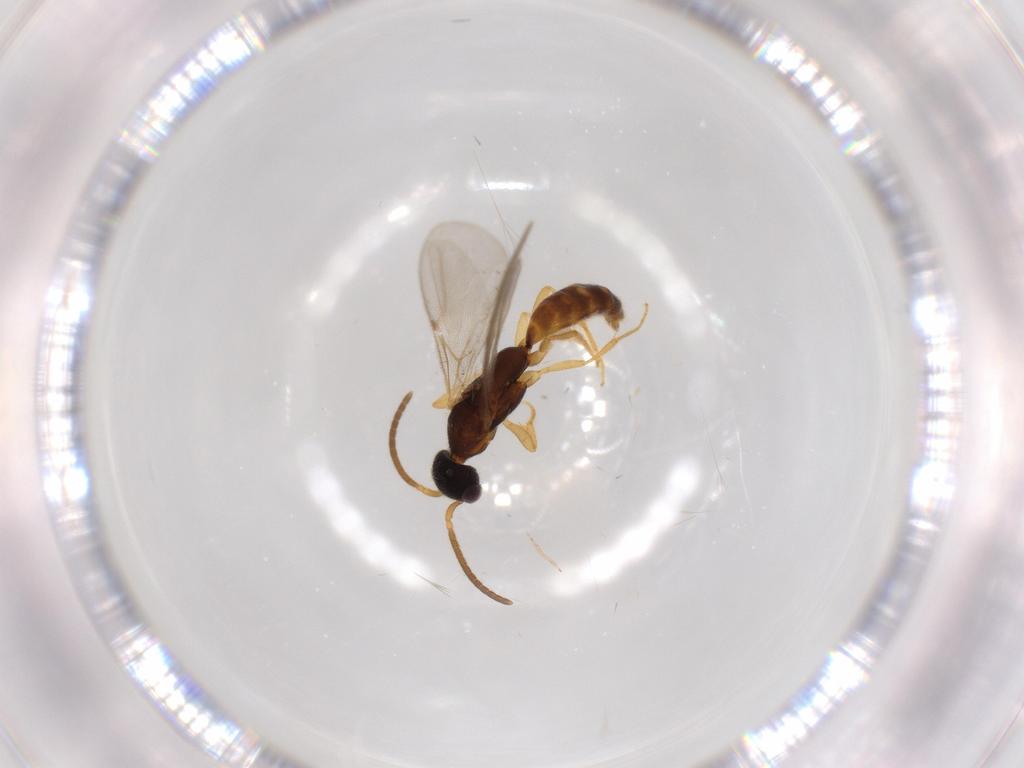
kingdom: Animalia
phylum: Arthropoda
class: Insecta
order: Hymenoptera
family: Bethylidae
